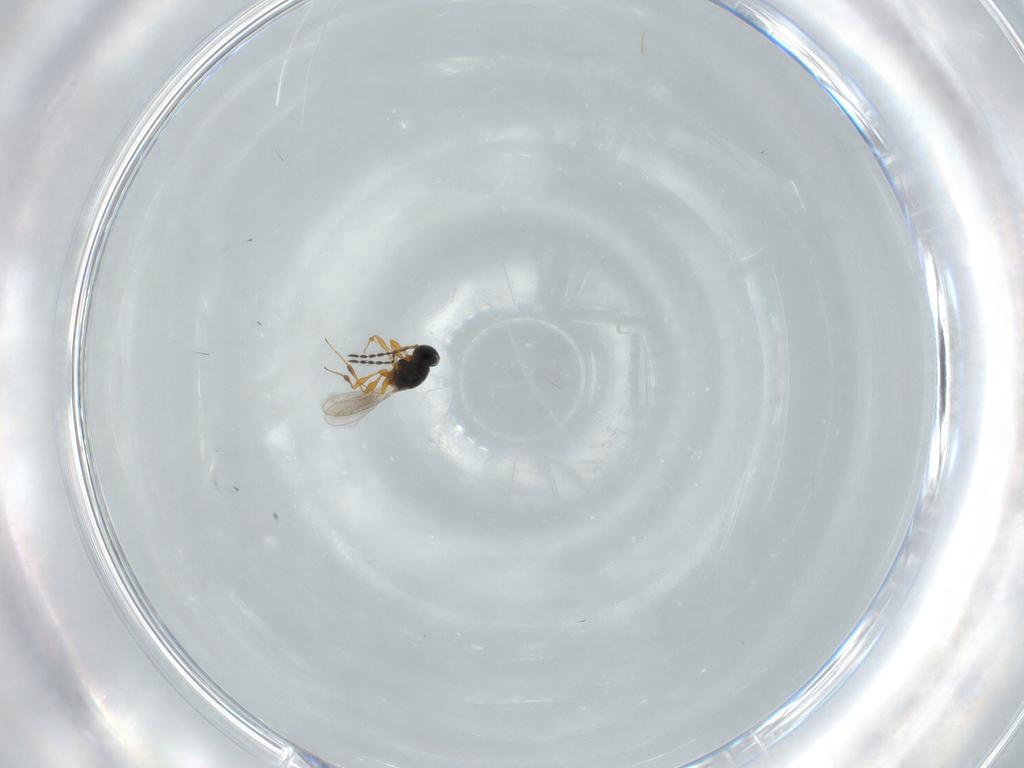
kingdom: Animalia
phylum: Arthropoda
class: Insecta
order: Hymenoptera
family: Platygastridae
